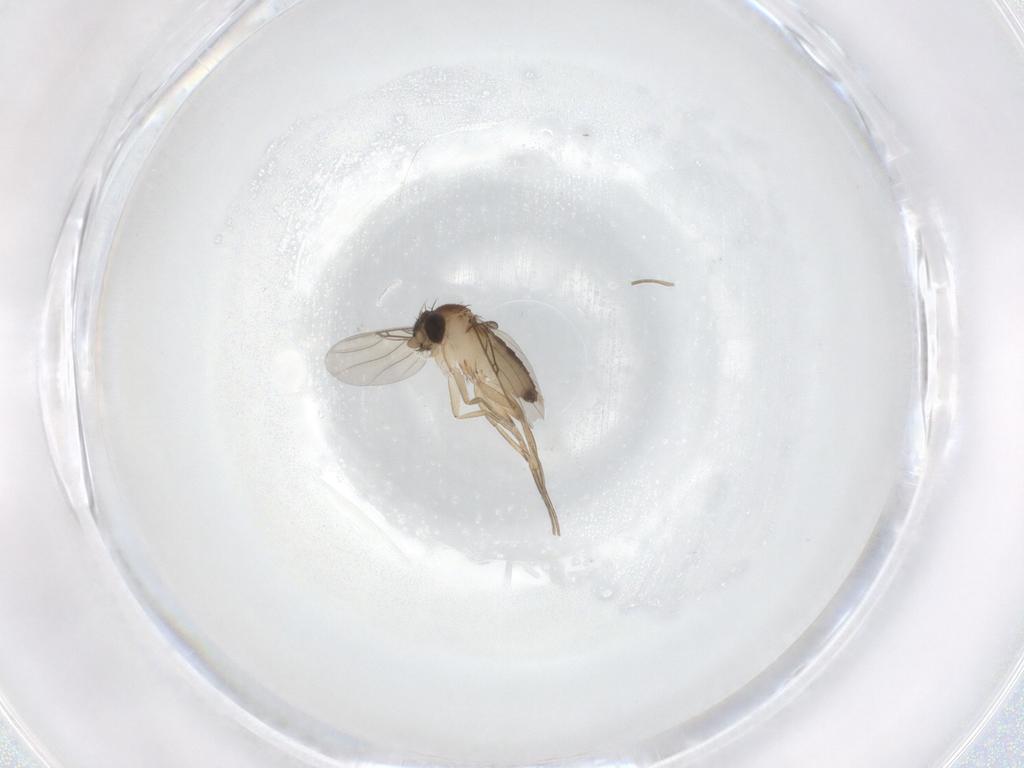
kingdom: Animalia
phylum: Arthropoda
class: Insecta
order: Diptera
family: Phoridae
